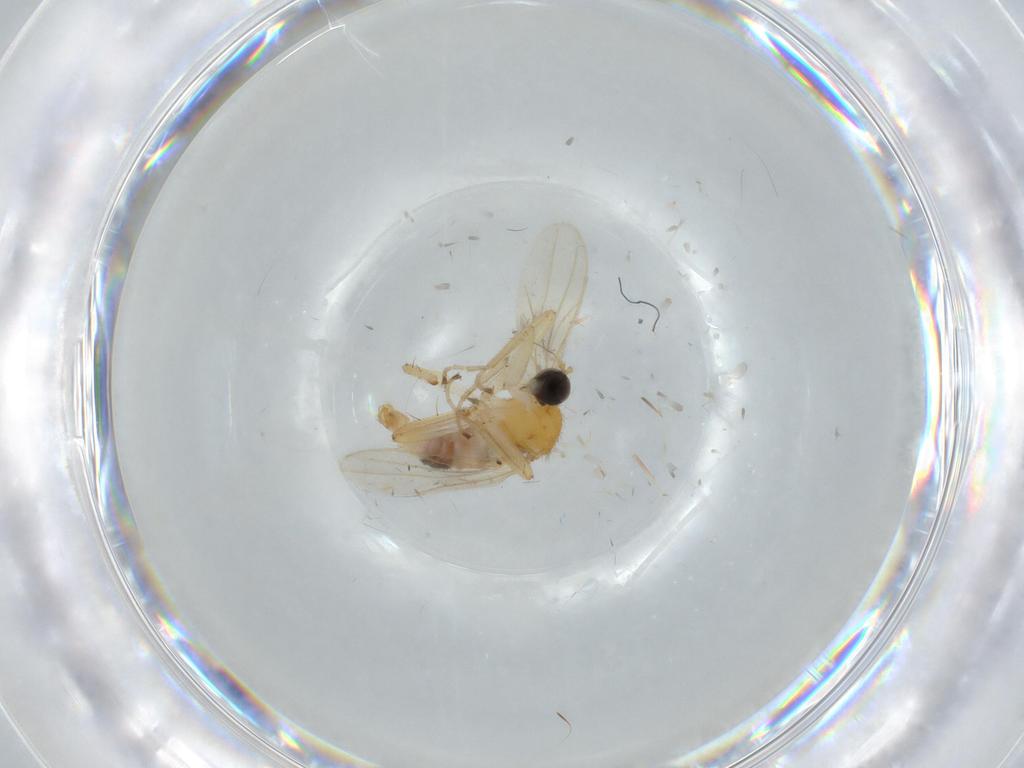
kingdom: Animalia
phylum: Arthropoda
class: Insecta
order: Diptera
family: Hybotidae
